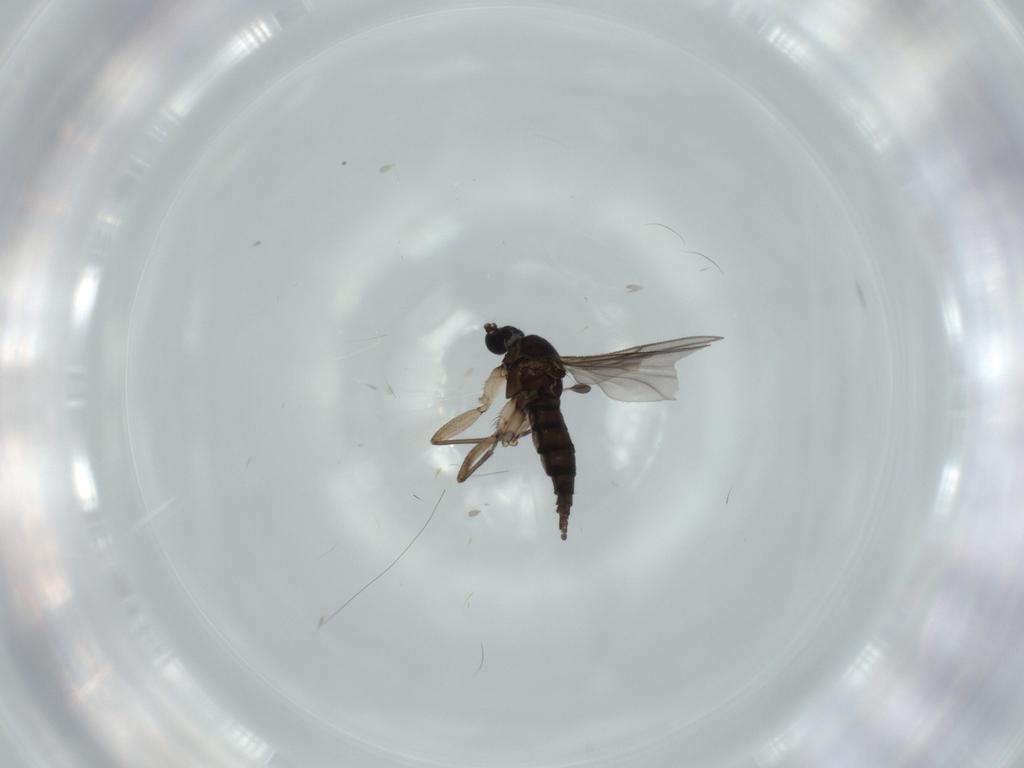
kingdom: Animalia
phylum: Arthropoda
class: Insecta
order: Diptera
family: Sciaridae
